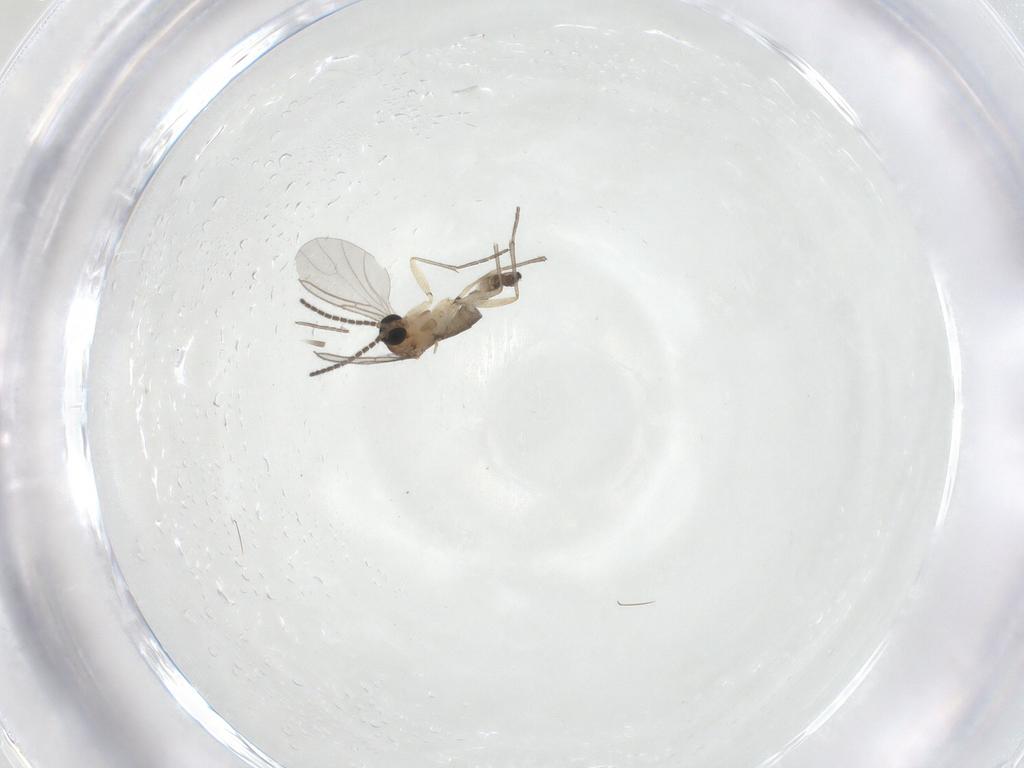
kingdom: Animalia
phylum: Arthropoda
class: Insecta
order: Diptera
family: Sciaridae
